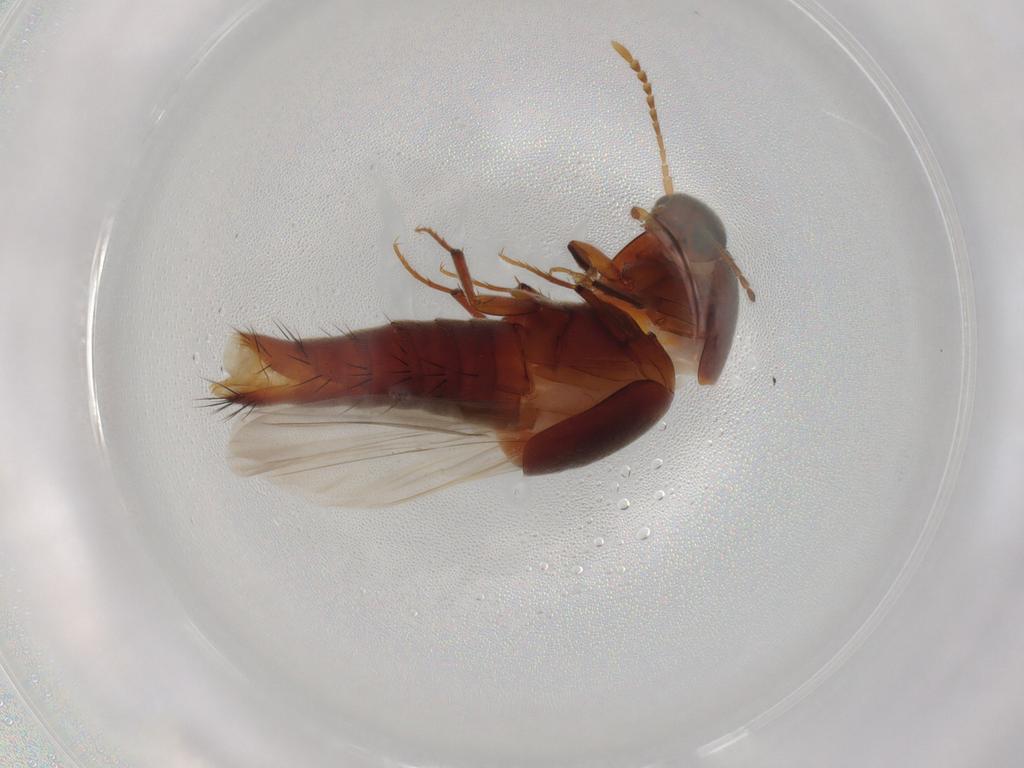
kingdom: Animalia
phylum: Arthropoda
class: Insecta
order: Coleoptera
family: Staphylinidae
